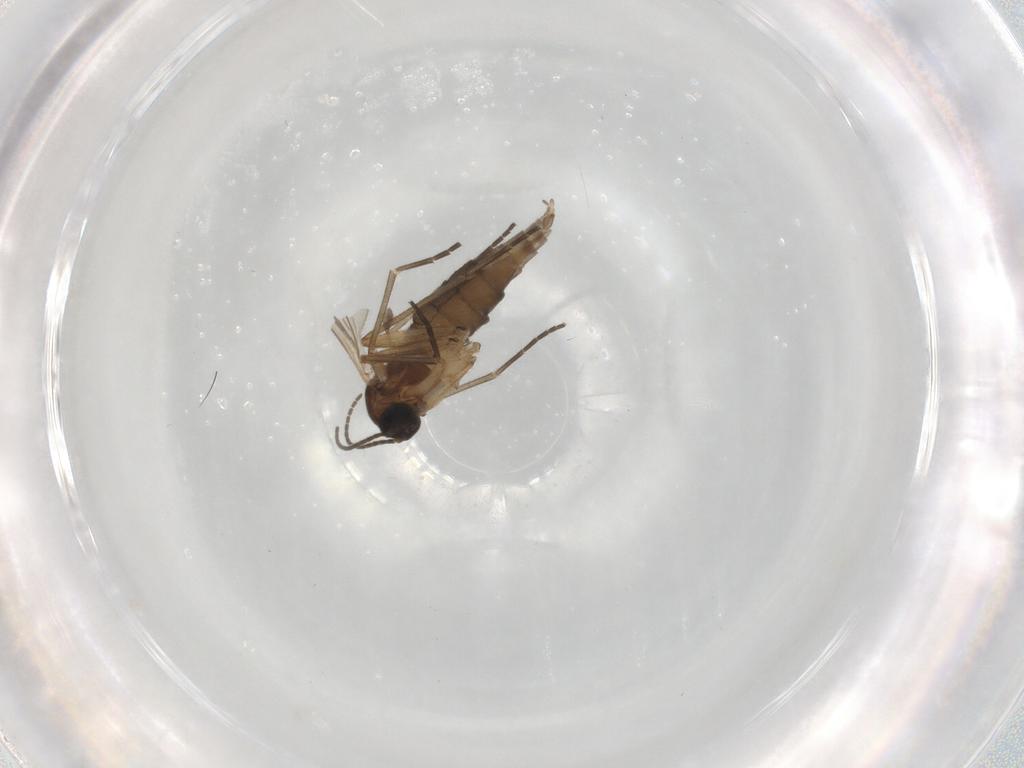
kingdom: Animalia
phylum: Arthropoda
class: Insecta
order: Diptera
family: Sciaridae
